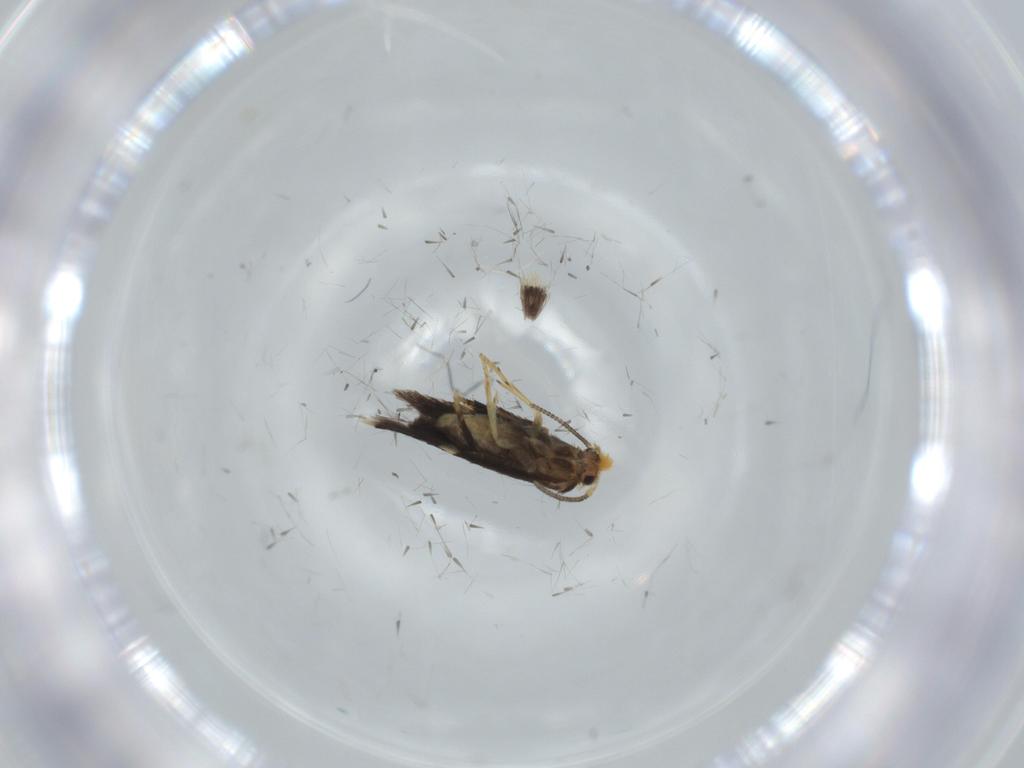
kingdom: Animalia
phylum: Arthropoda
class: Insecta
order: Lepidoptera
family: Nepticulidae
